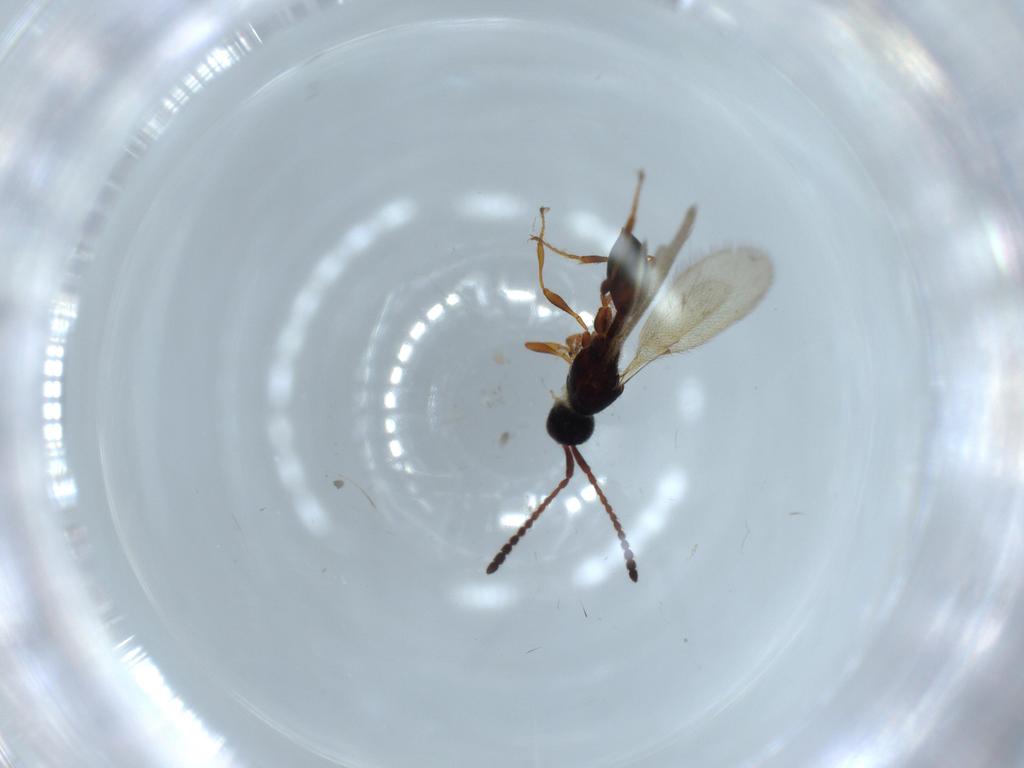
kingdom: Animalia
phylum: Arthropoda
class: Insecta
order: Hymenoptera
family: Diapriidae
